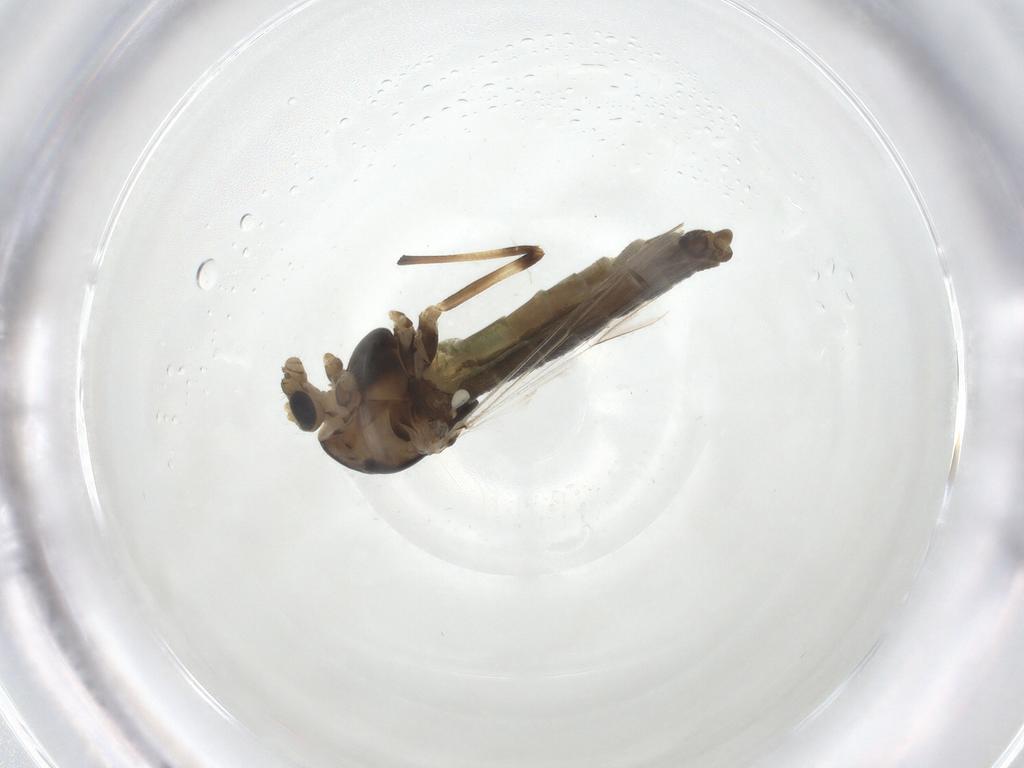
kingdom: Animalia
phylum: Arthropoda
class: Insecta
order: Diptera
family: Chironomidae
